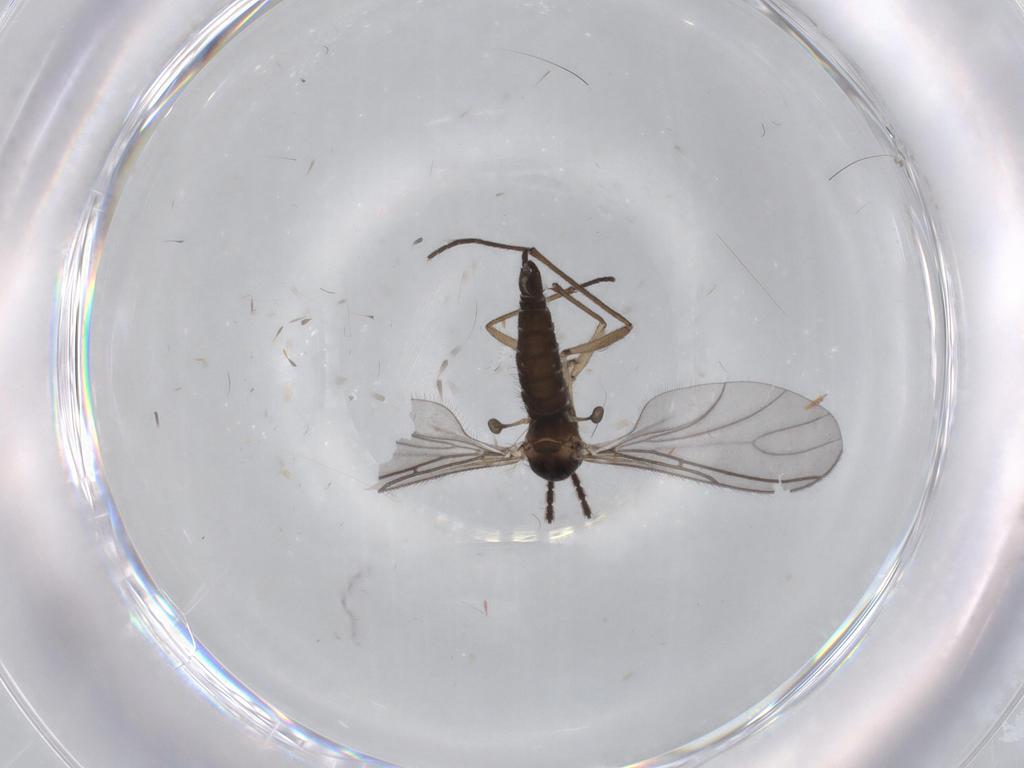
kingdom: Animalia
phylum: Arthropoda
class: Insecta
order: Diptera
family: Sciaridae
